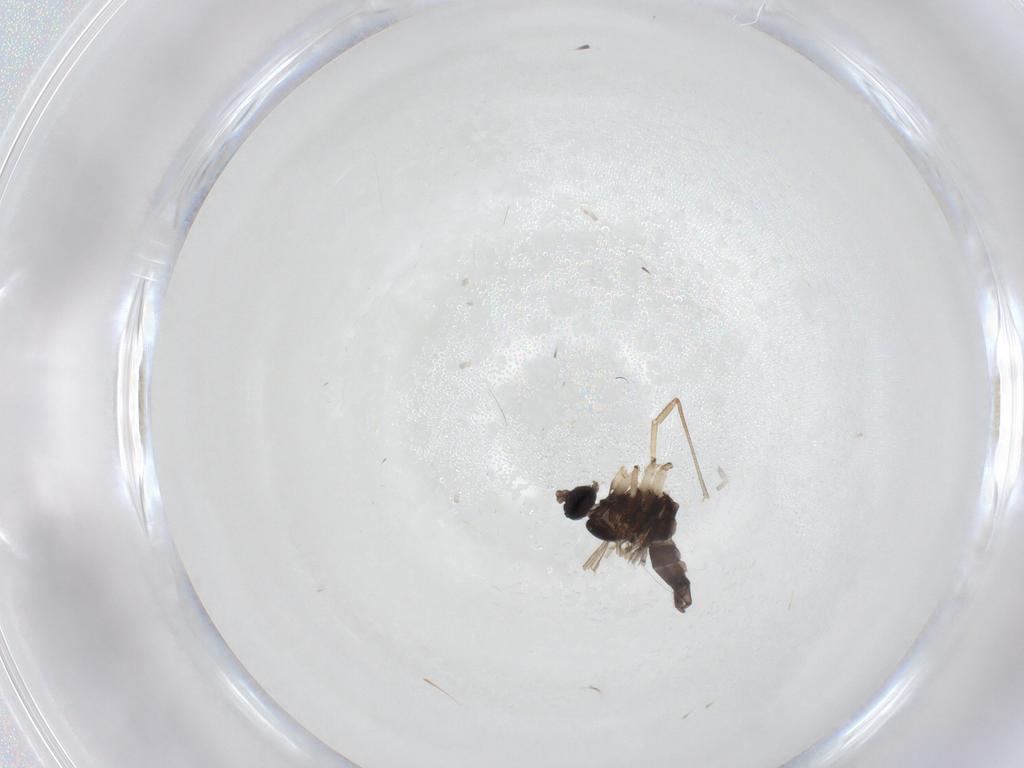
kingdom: Animalia
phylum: Arthropoda
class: Insecta
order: Diptera
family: Sciaridae
